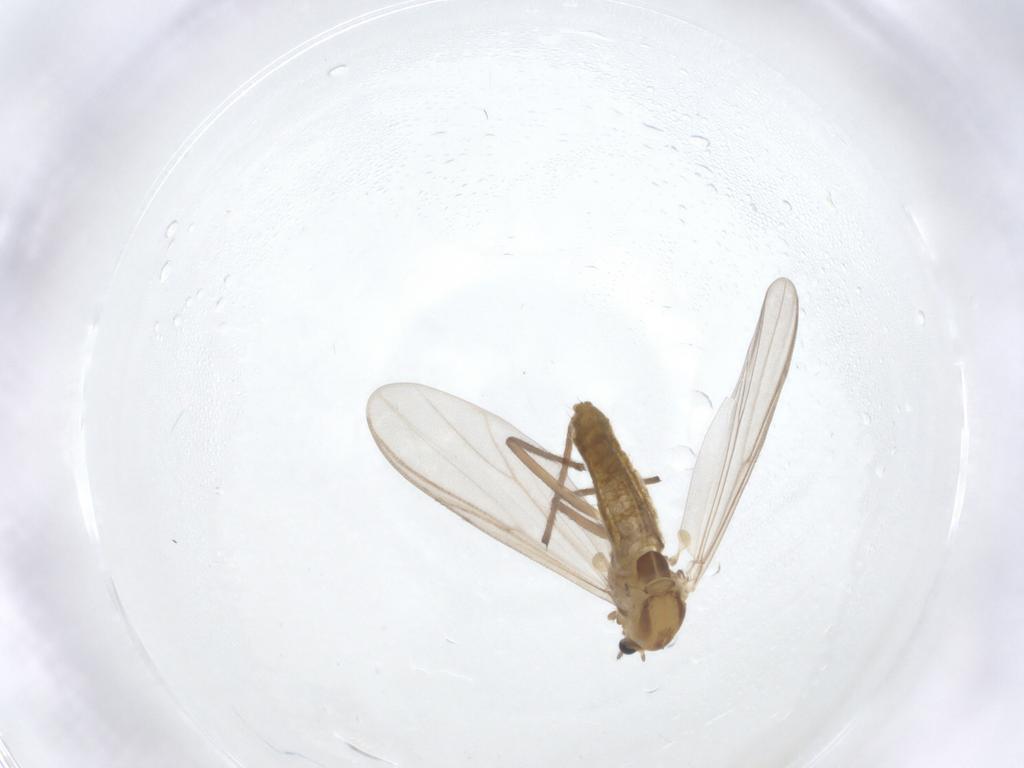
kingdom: Animalia
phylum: Arthropoda
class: Insecta
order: Diptera
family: Chironomidae
